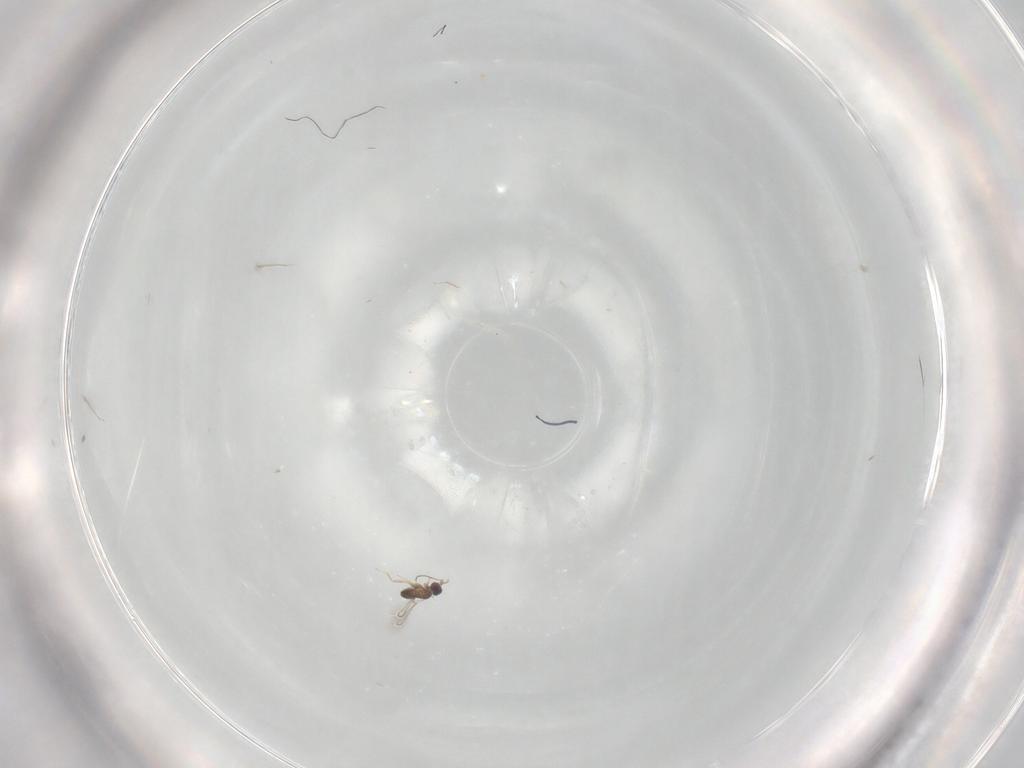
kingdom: Animalia
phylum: Arthropoda
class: Insecta
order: Hymenoptera
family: Mymaridae
